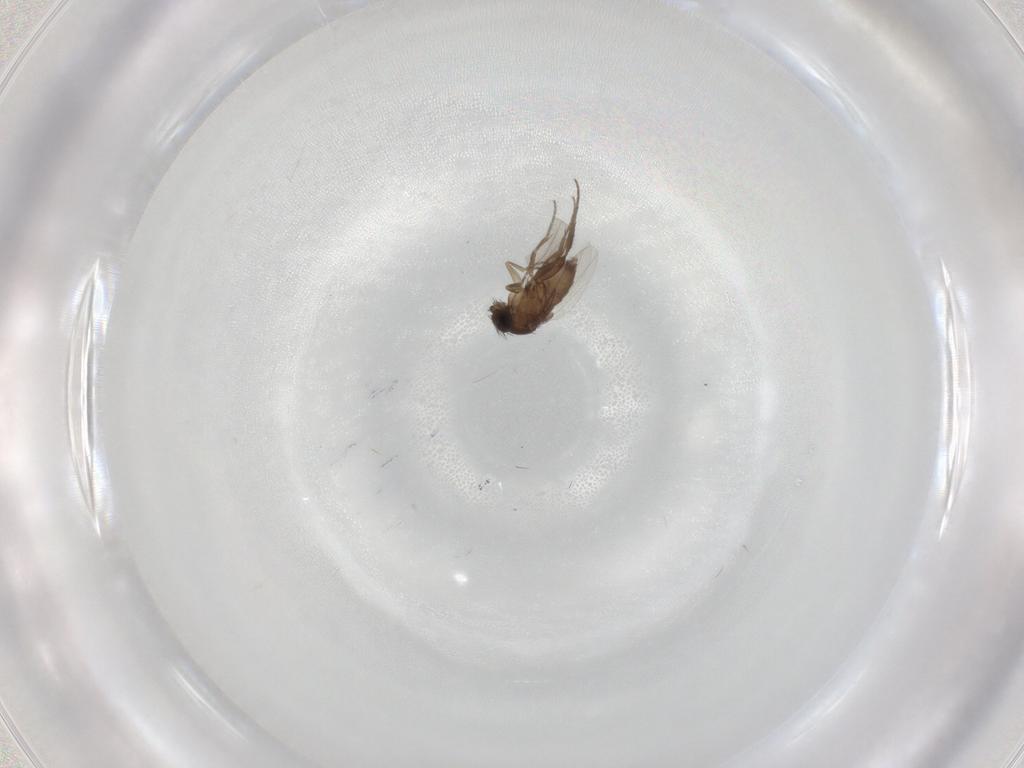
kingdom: Animalia
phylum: Arthropoda
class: Insecta
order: Diptera
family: Phoridae
